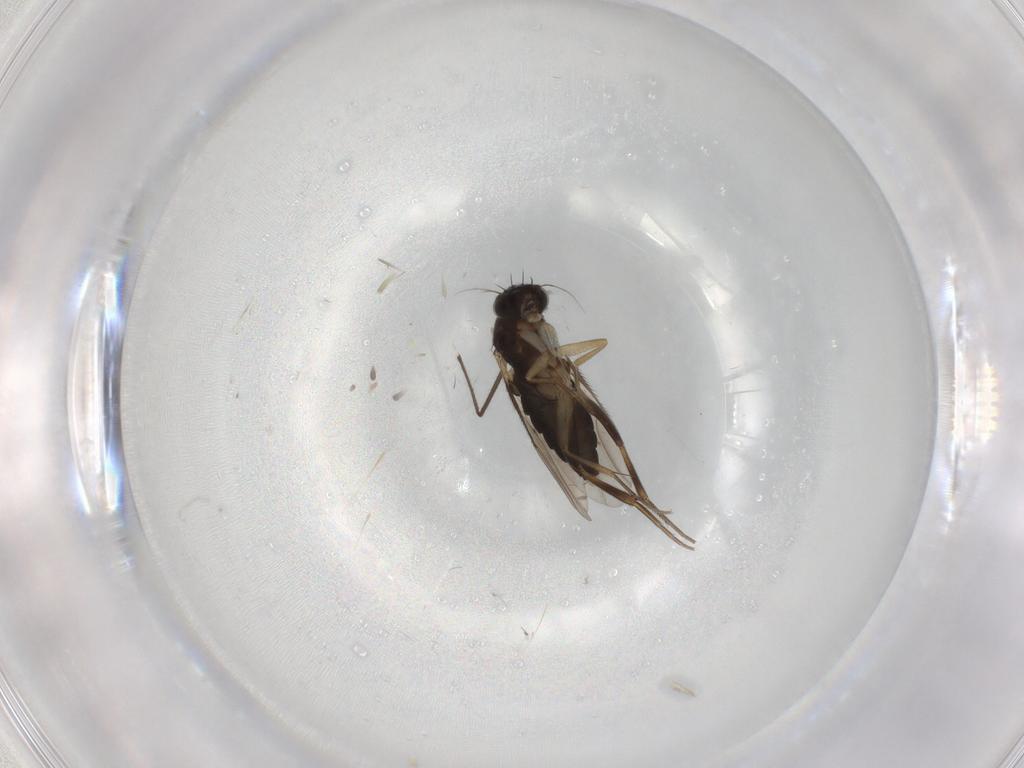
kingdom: Animalia
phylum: Arthropoda
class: Insecta
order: Diptera
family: Phoridae
